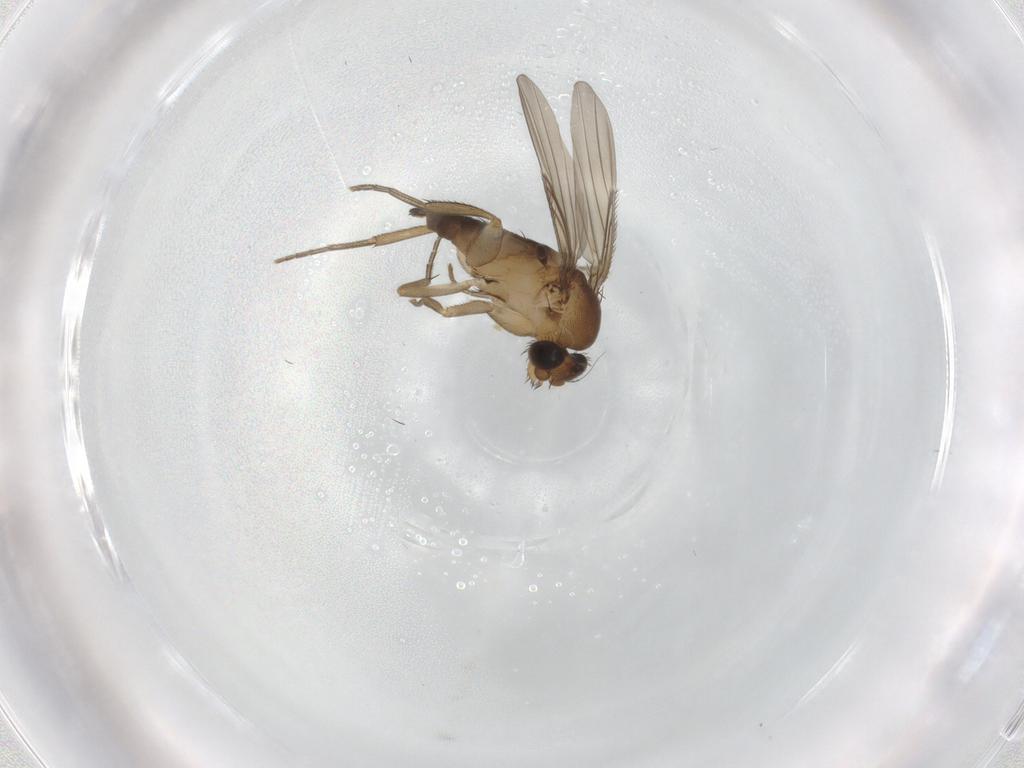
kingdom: Animalia
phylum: Arthropoda
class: Insecta
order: Diptera
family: Phoridae
